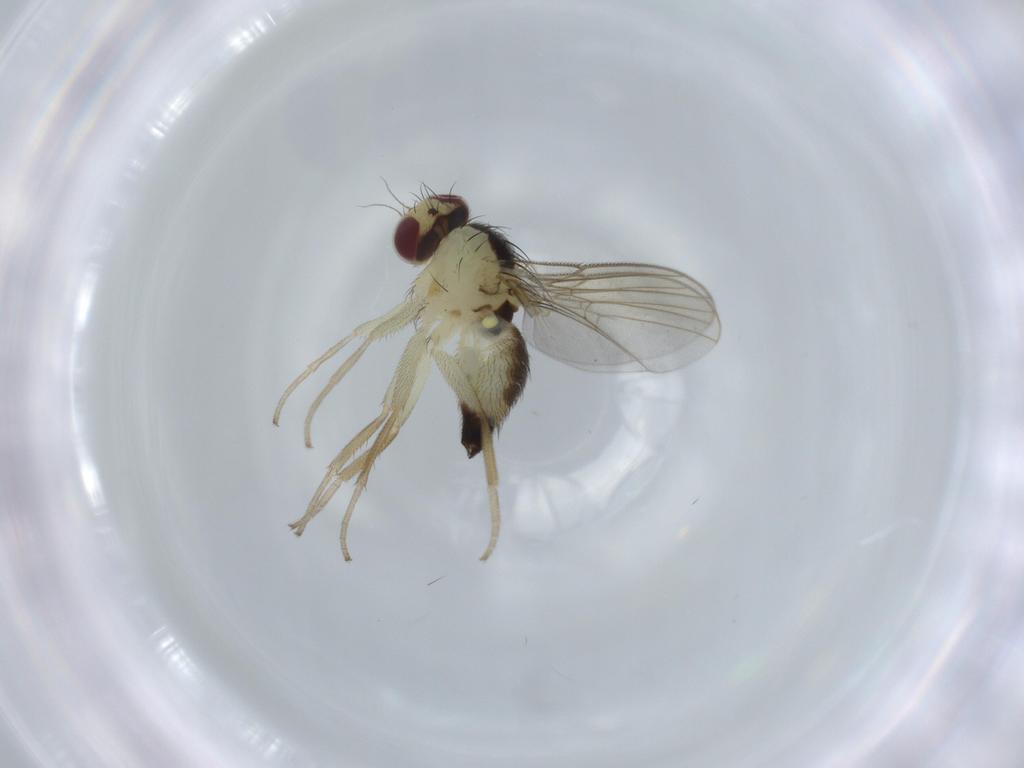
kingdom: Animalia
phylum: Arthropoda
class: Insecta
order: Diptera
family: Agromyzidae
